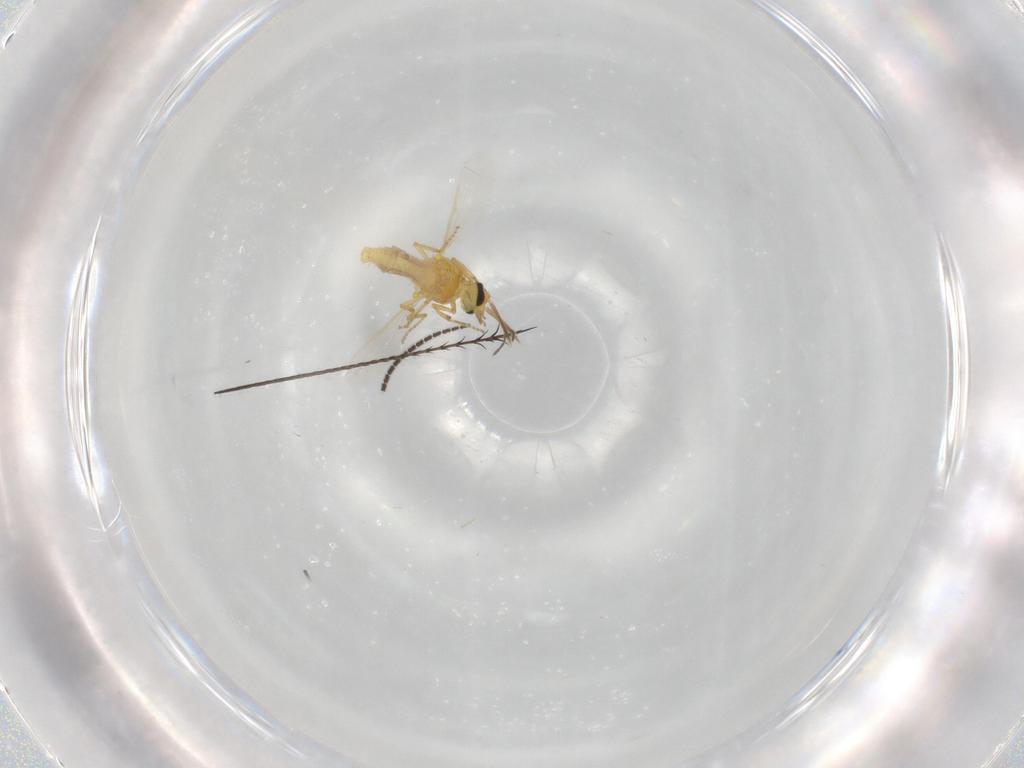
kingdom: Animalia
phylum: Arthropoda
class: Insecta
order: Diptera
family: Ceratopogonidae
